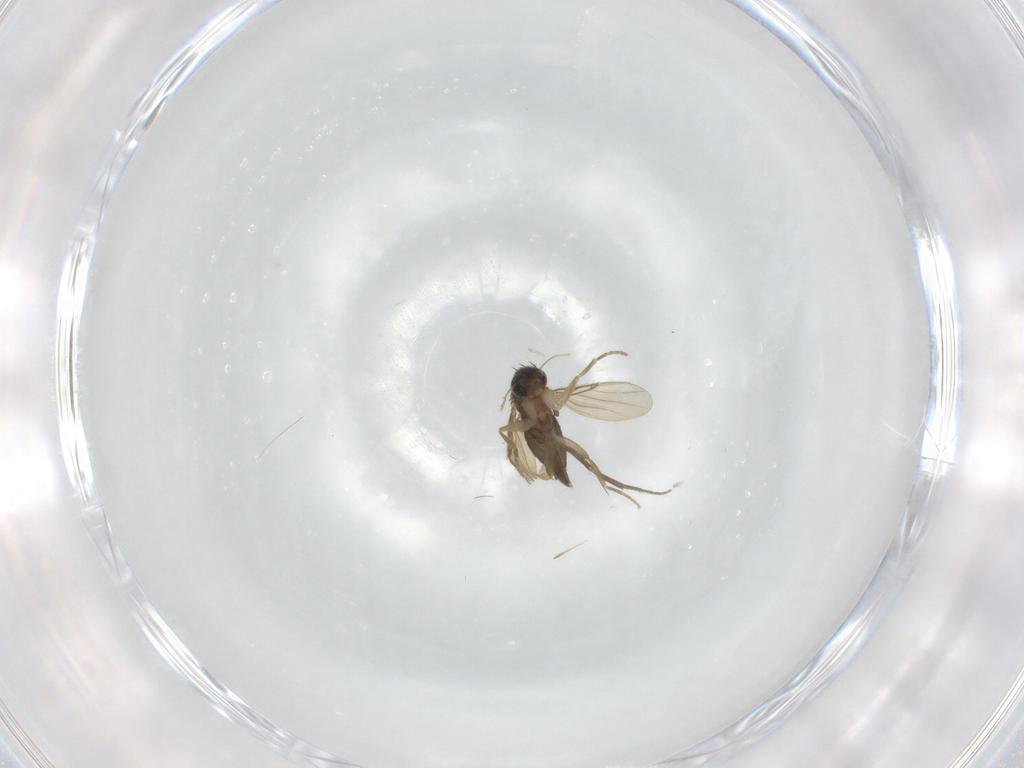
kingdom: Animalia
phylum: Arthropoda
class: Insecta
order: Diptera
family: Phoridae
